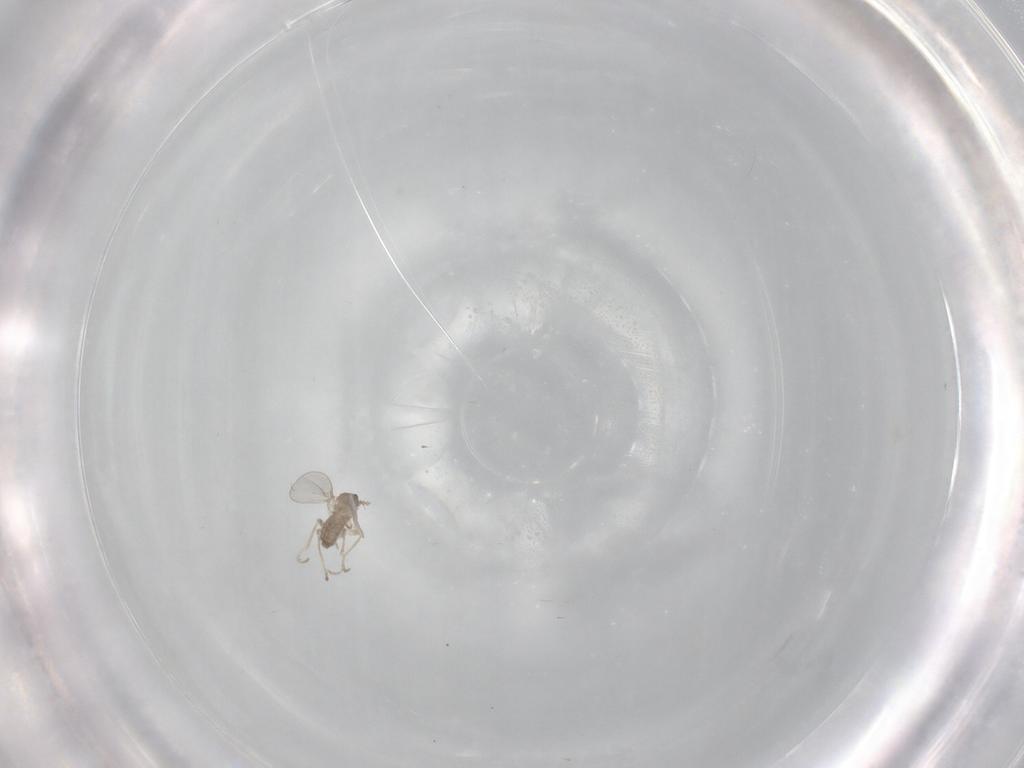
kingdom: Animalia
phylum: Arthropoda
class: Insecta
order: Diptera
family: Cecidomyiidae
